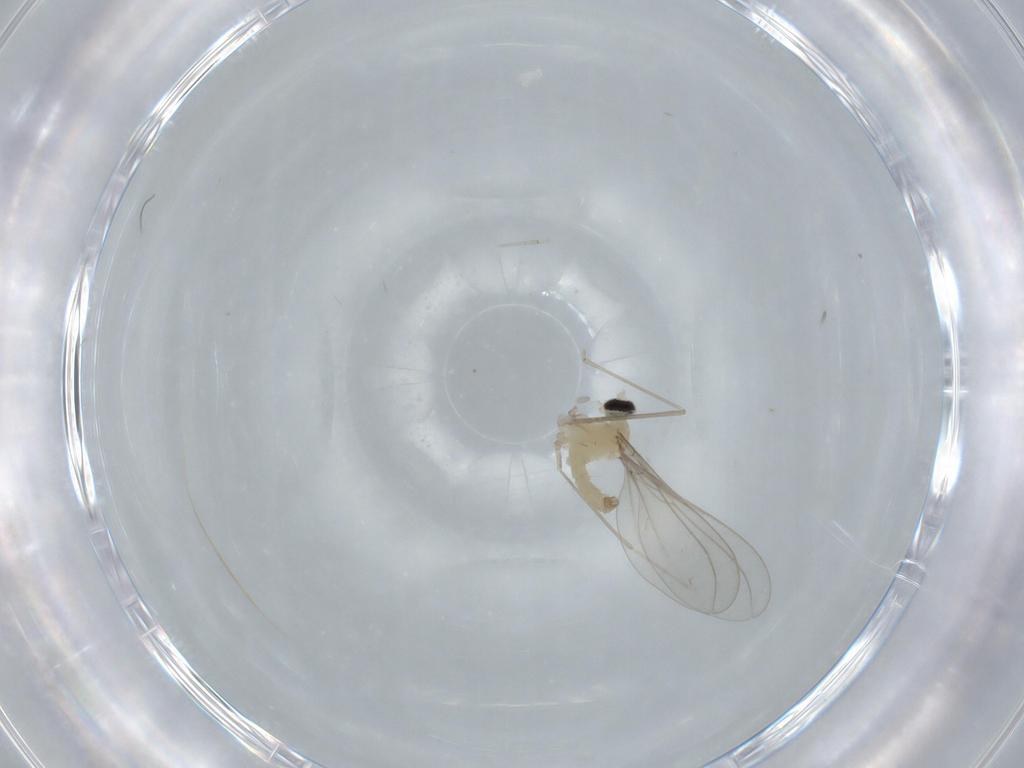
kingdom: Animalia
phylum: Arthropoda
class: Insecta
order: Diptera
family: Cecidomyiidae
